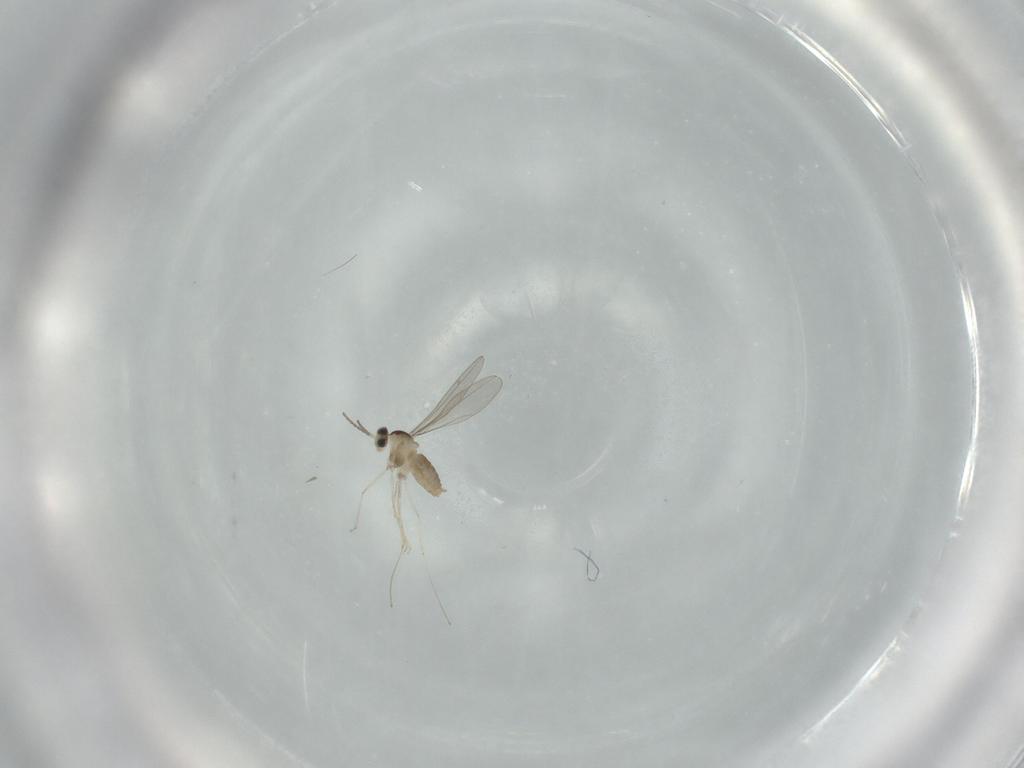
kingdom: Animalia
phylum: Arthropoda
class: Insecta
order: Diptera
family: Cecidomyiidae
